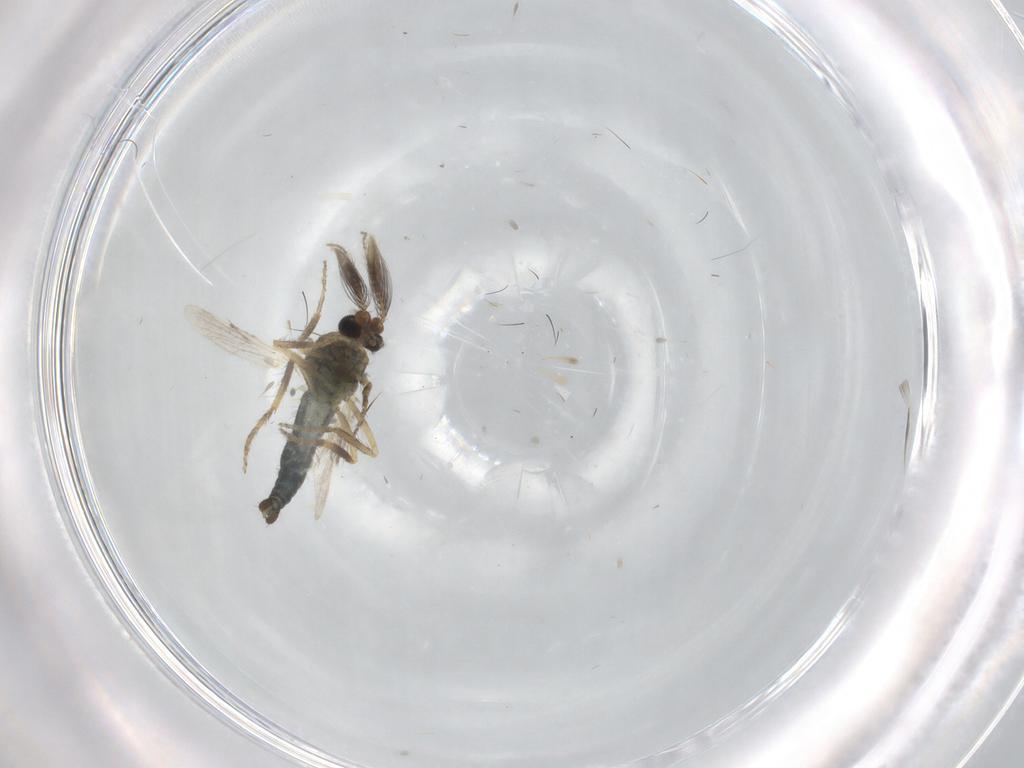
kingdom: Animalia
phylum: Arthropoda
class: Insecta
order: Diptera
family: Ceratopogonidae
